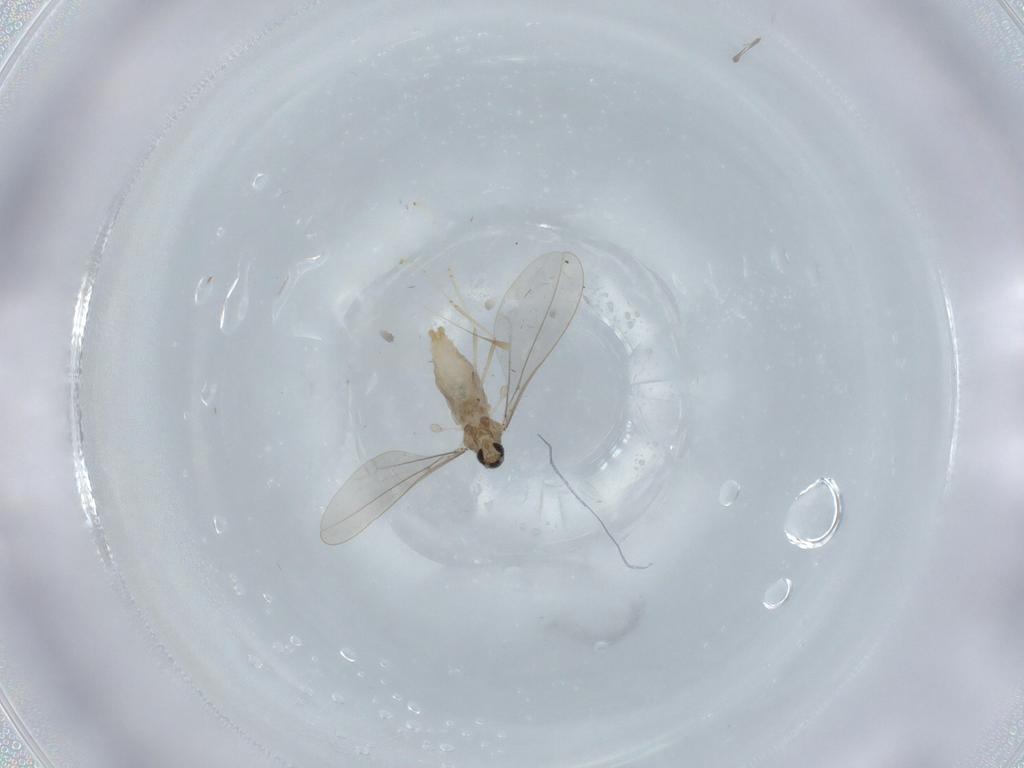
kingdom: Animalia
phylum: Arthropoda
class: Insecta
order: Diptera
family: Cecidomyiidae
